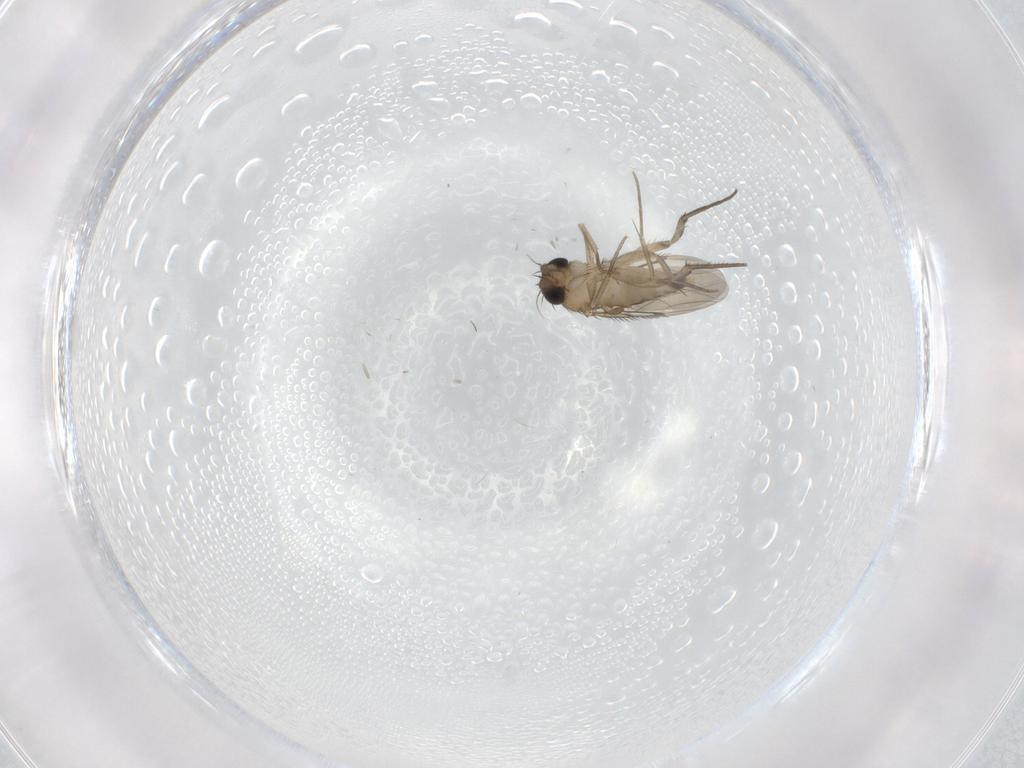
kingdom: Animalia
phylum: Arthropoda
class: Insecta
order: Diptera
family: Phoridae
